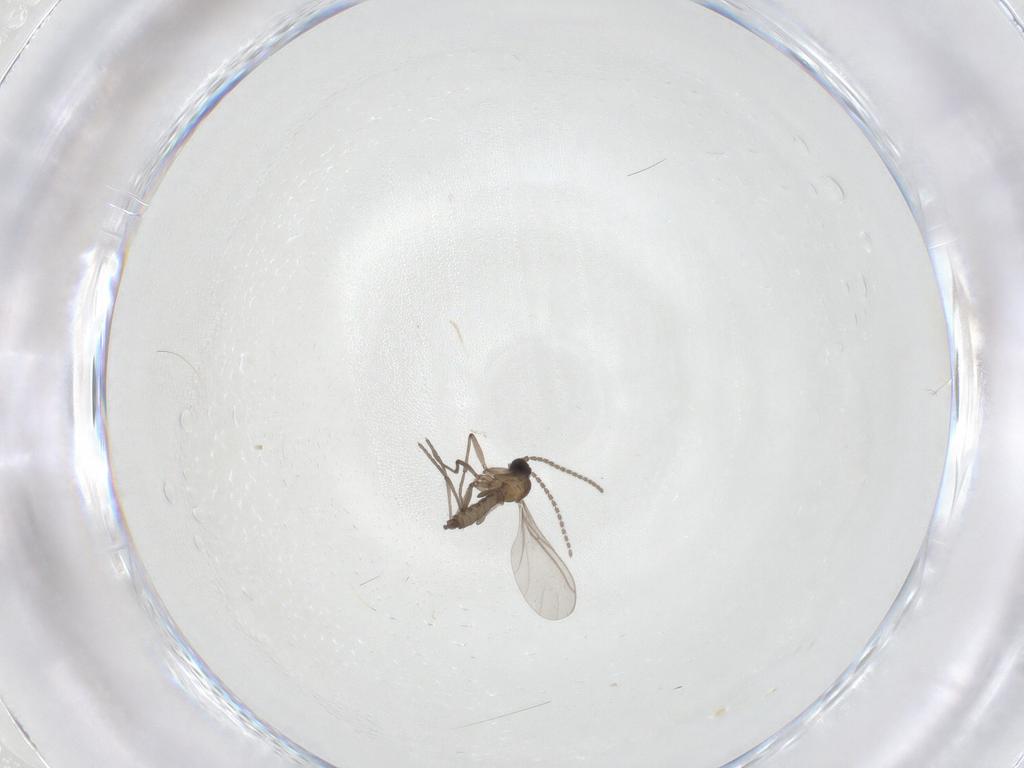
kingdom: Animalia
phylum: Arthropoda
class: Insecta
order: Diptera
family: Sciaridae
